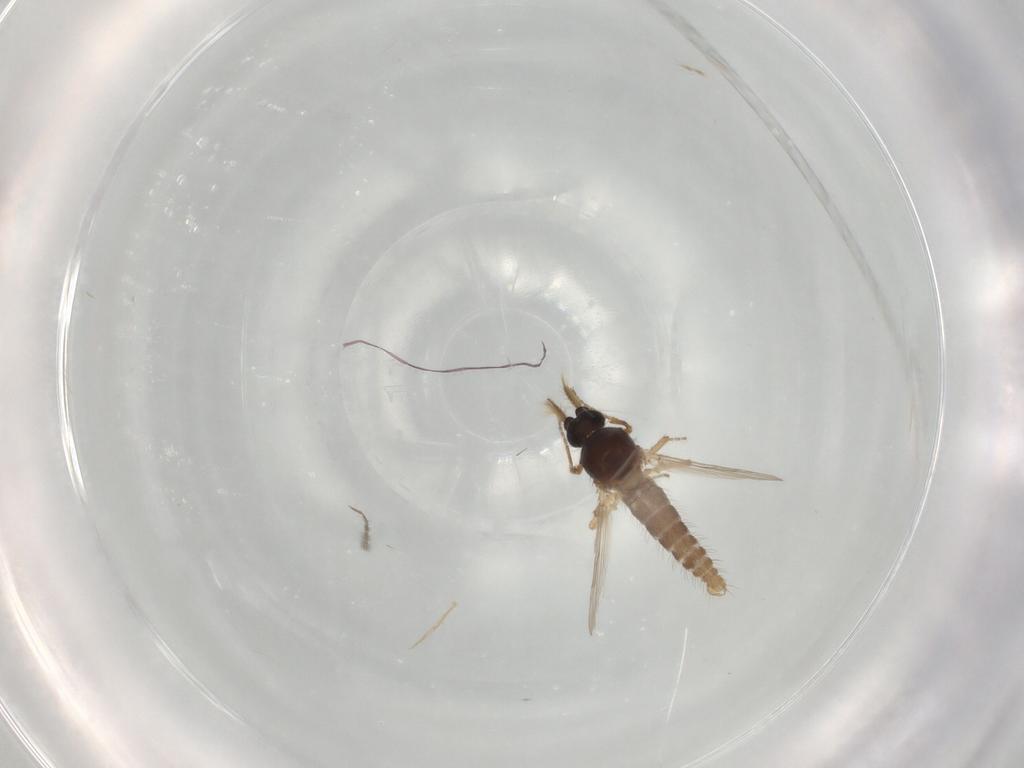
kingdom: Animalia
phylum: Arthropoda
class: Insecta
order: Diptera
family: Ceratopogonidae
